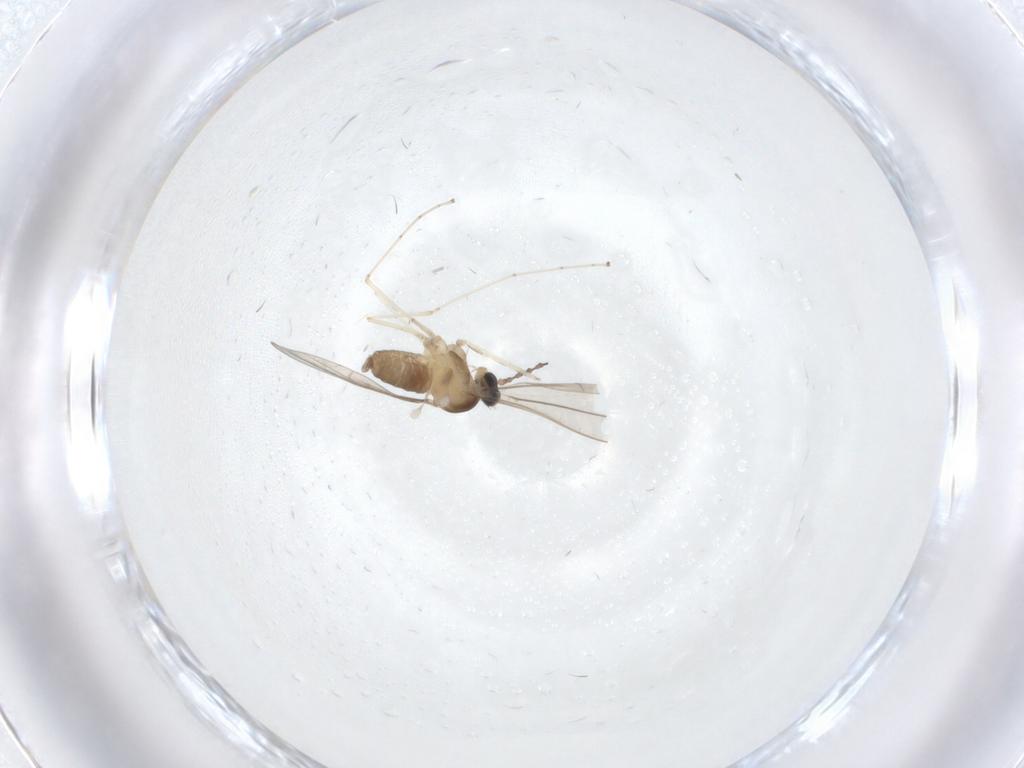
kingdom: Animalia
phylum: Arthropoda
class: Insecta
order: Diptera
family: Cecidomyiidae
